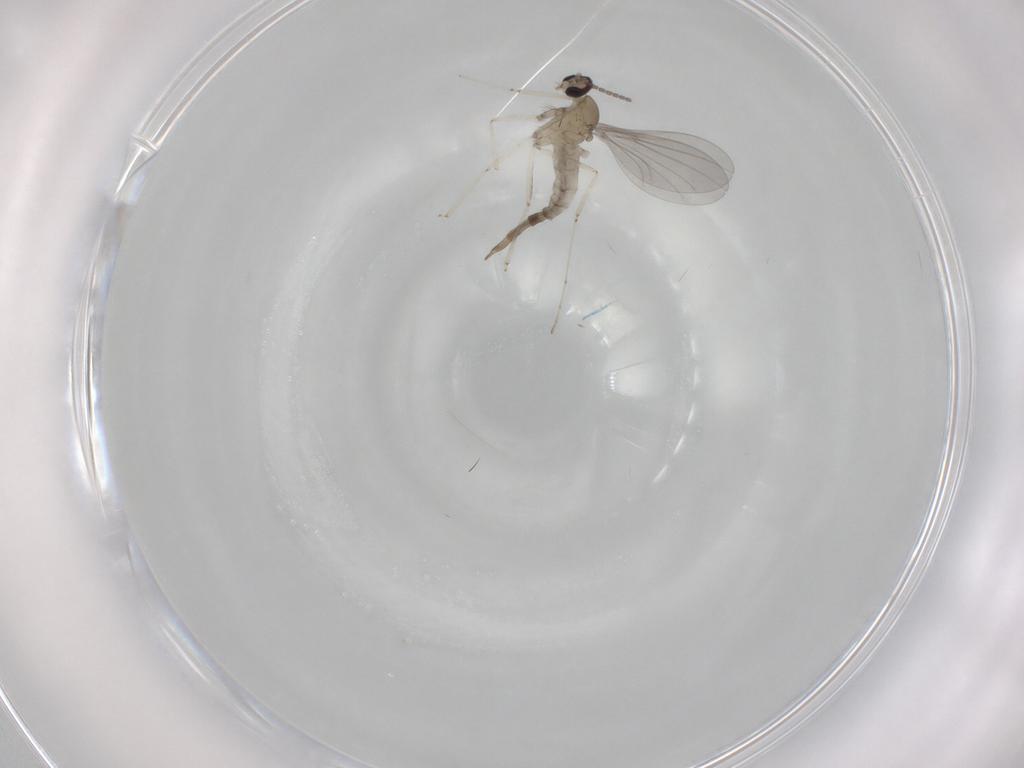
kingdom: Animalia
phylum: Arthropoda
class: Insecta
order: Diptera
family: Cecidomyiidae
